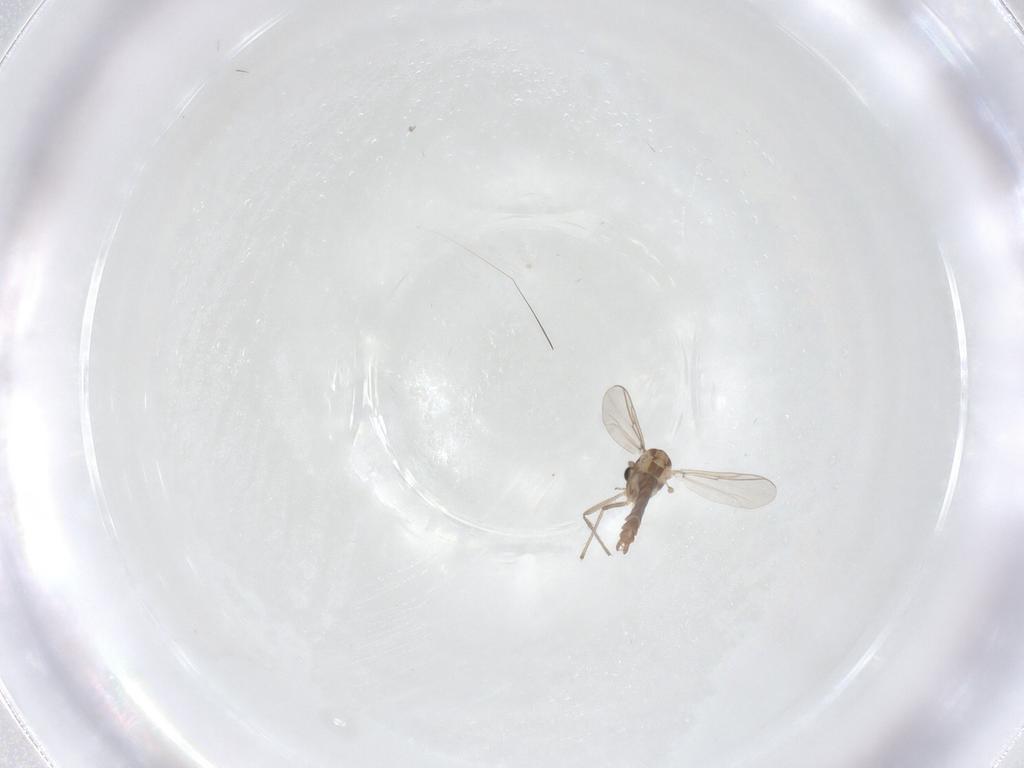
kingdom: Animalia
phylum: Arthropoda
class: Insecta
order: Diptera
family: Chironomidae
